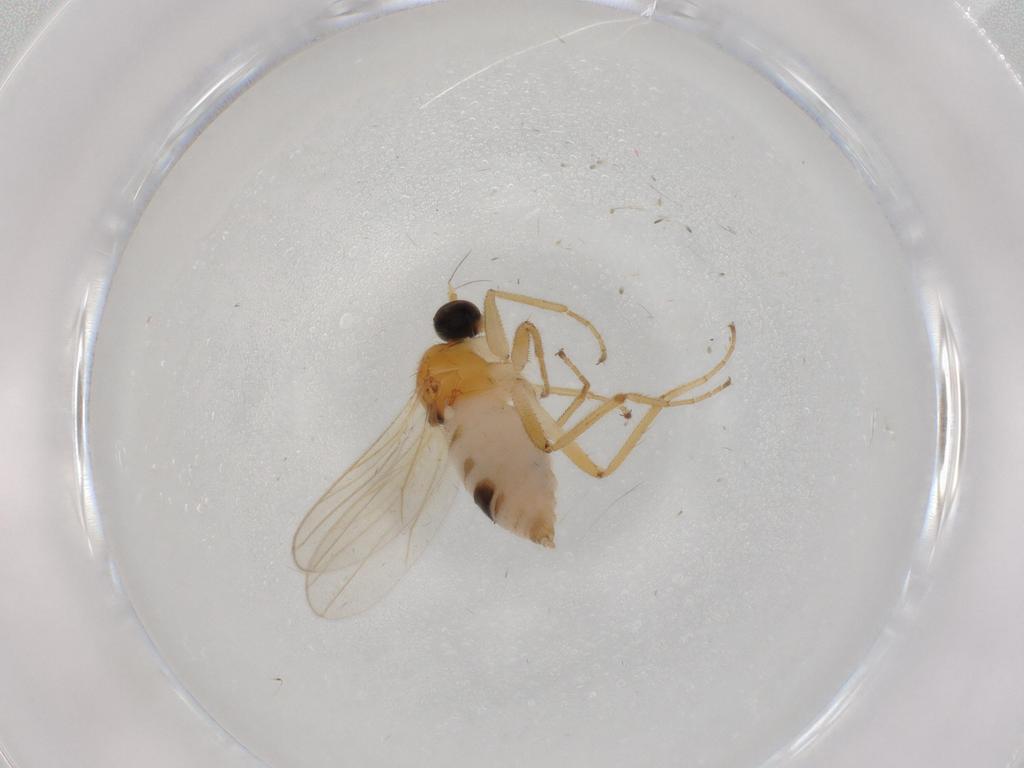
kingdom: Animalia
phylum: Arthropoda
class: Insecta
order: Diptera
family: Hybotidae
